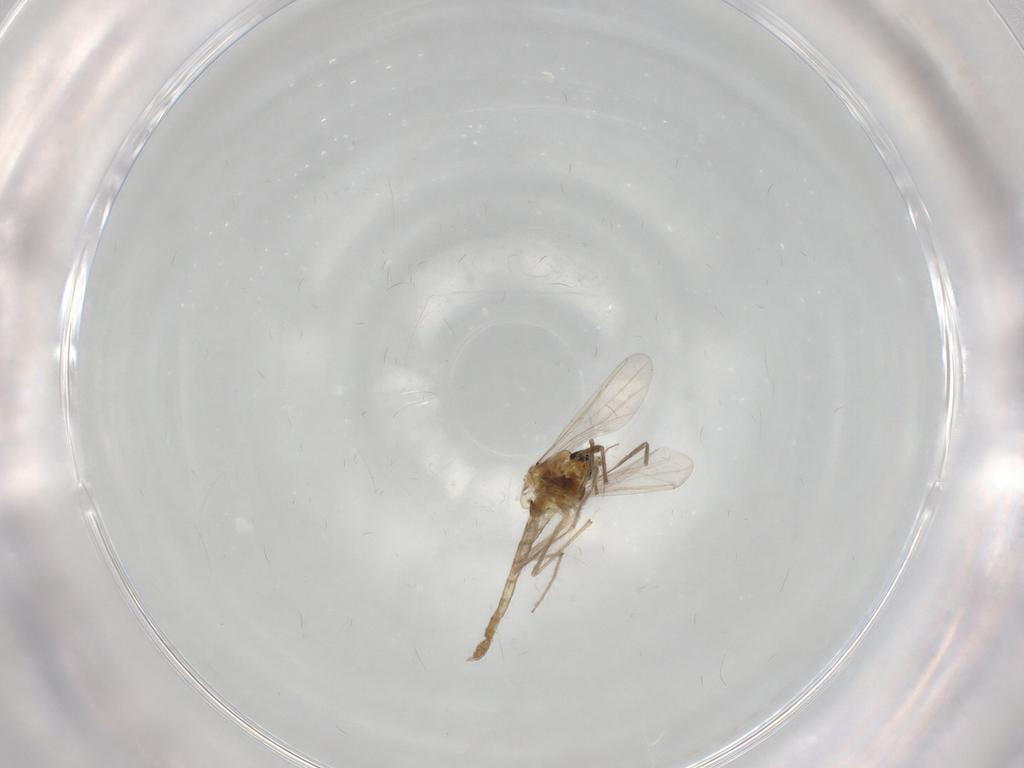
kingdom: Animalia
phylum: Arthropoda
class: Insecta
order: Diptera
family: Chironomidae
